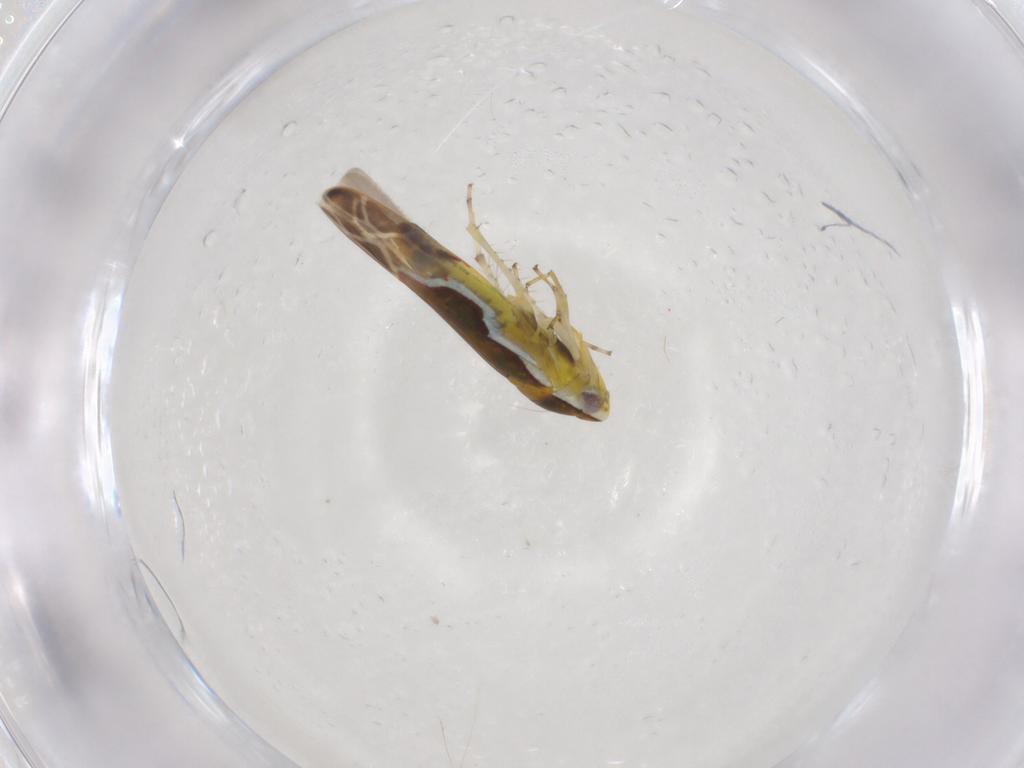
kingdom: Animalia
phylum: Arthropoda
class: Insecta
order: Hemiptera
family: Cicadellidae
